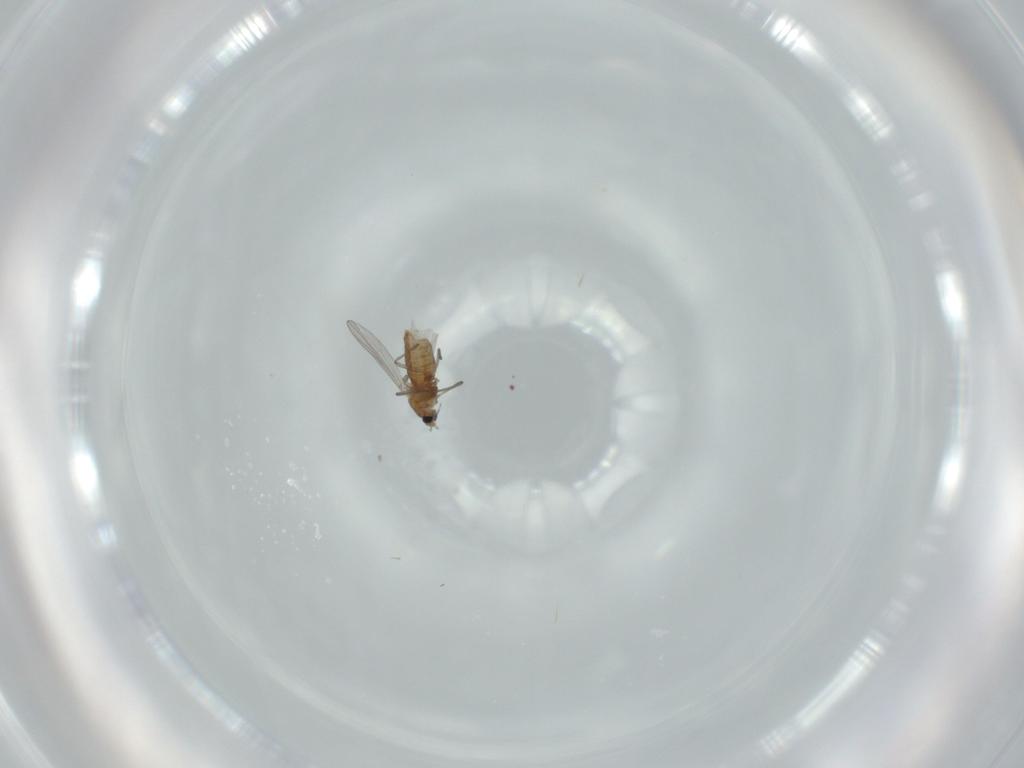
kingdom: Animalia
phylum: Arthropoda
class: Insecta
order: Diptera
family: Chironomidae
